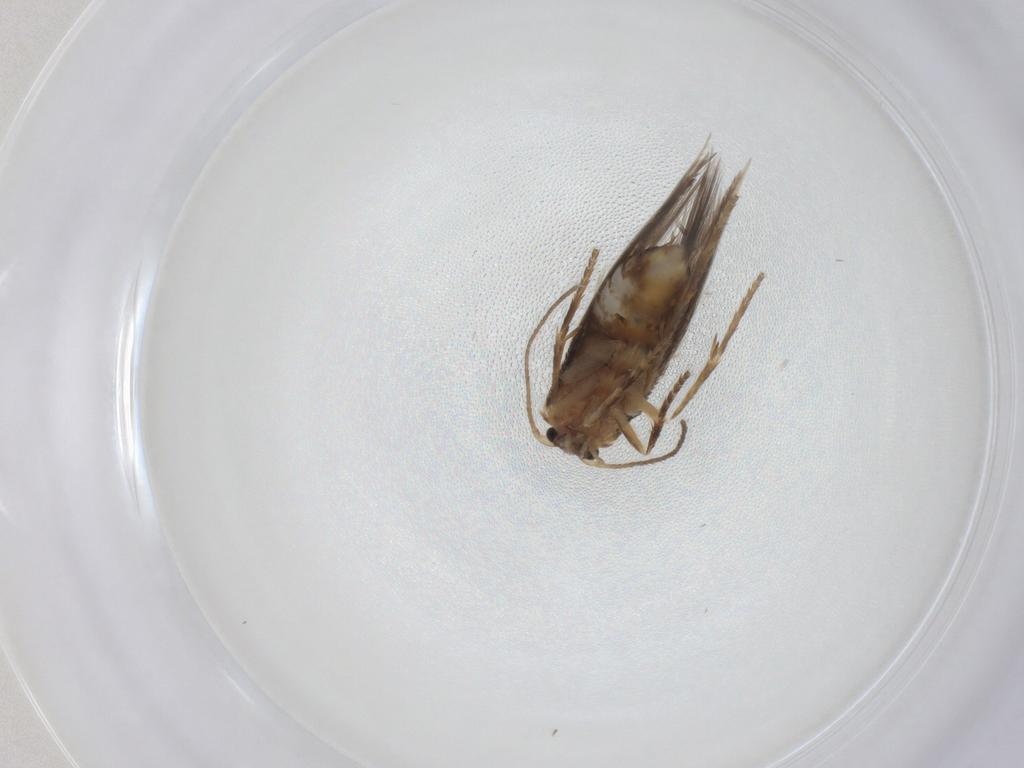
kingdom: Animalia
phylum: Arthropoda
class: Insecta
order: Lepidoptera
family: Nepticulidae
